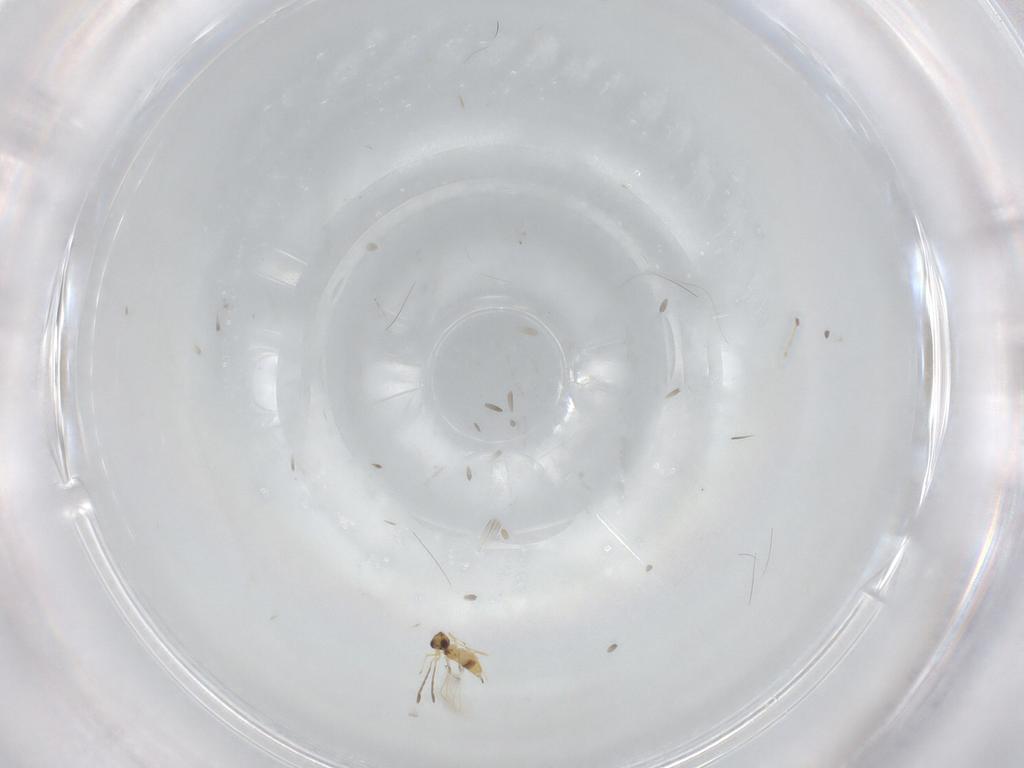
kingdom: Animalia
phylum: Arthropoda
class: Insecta
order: Hymenoptera
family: Mymaridae
